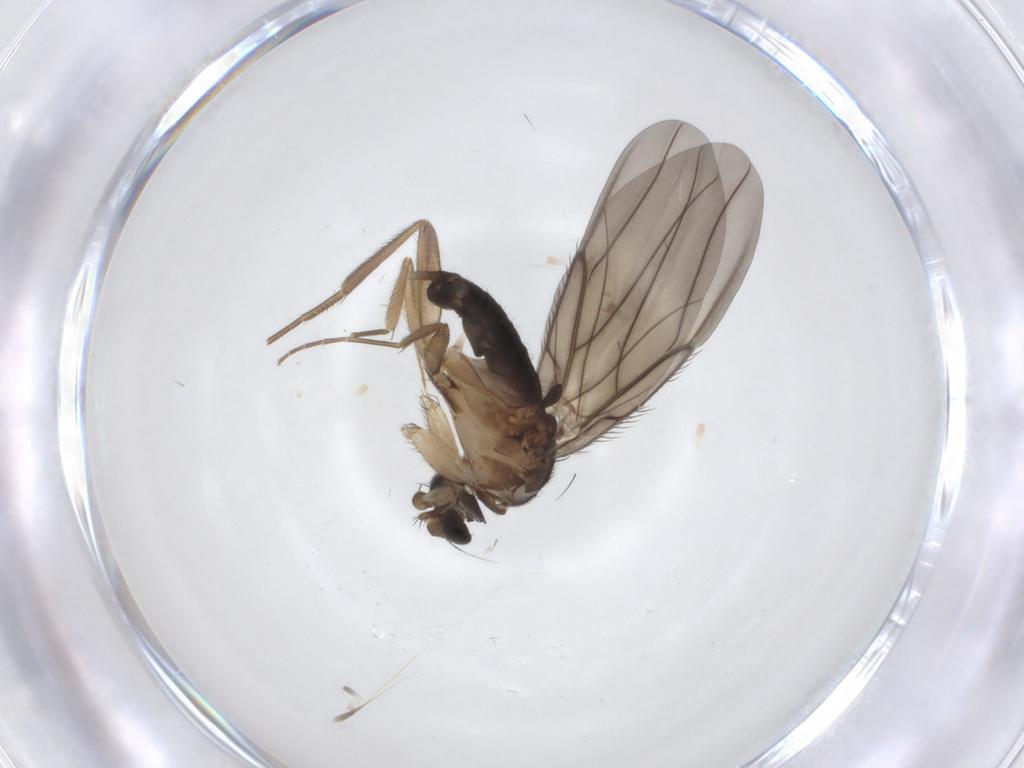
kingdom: Animalia
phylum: Arthropoda
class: Insecta
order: Diptera
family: Phoridae
